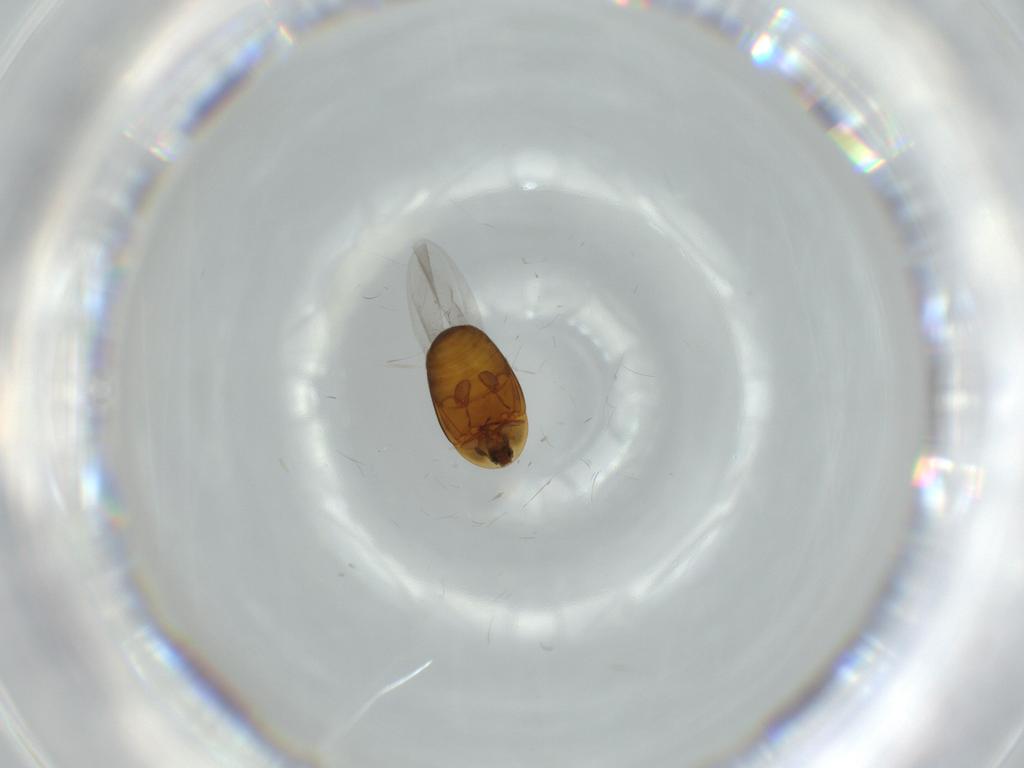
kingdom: Animalia
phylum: Arthropoda
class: Insecta
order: Coleoptera
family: Corylophidae
